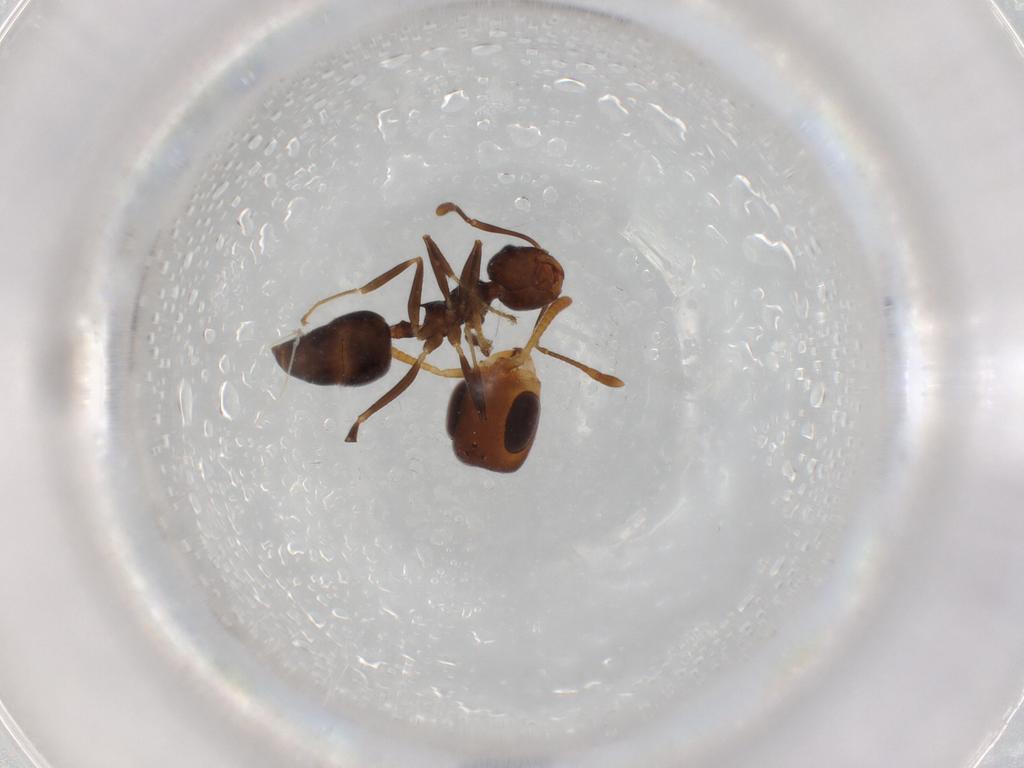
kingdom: Animalia
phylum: Arthropoda
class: Insecta
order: Hymenoptera
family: Formicidae
